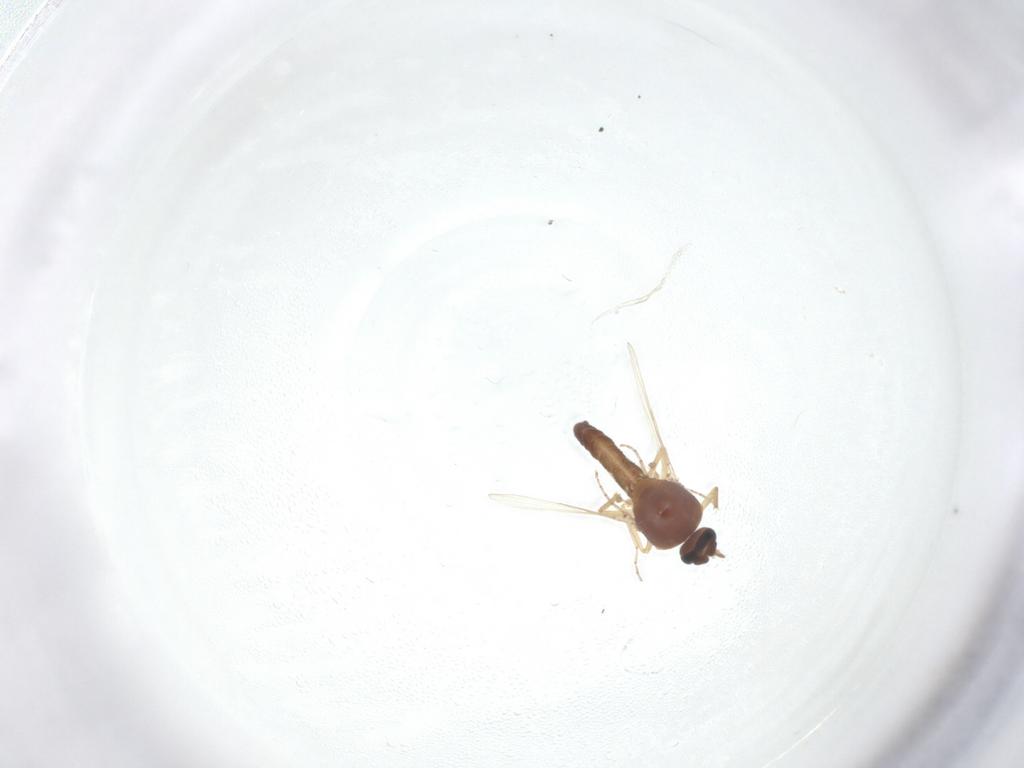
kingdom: Animalia
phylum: Arthropoda
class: Insecta
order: Diptera
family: Ceratopogonidae
